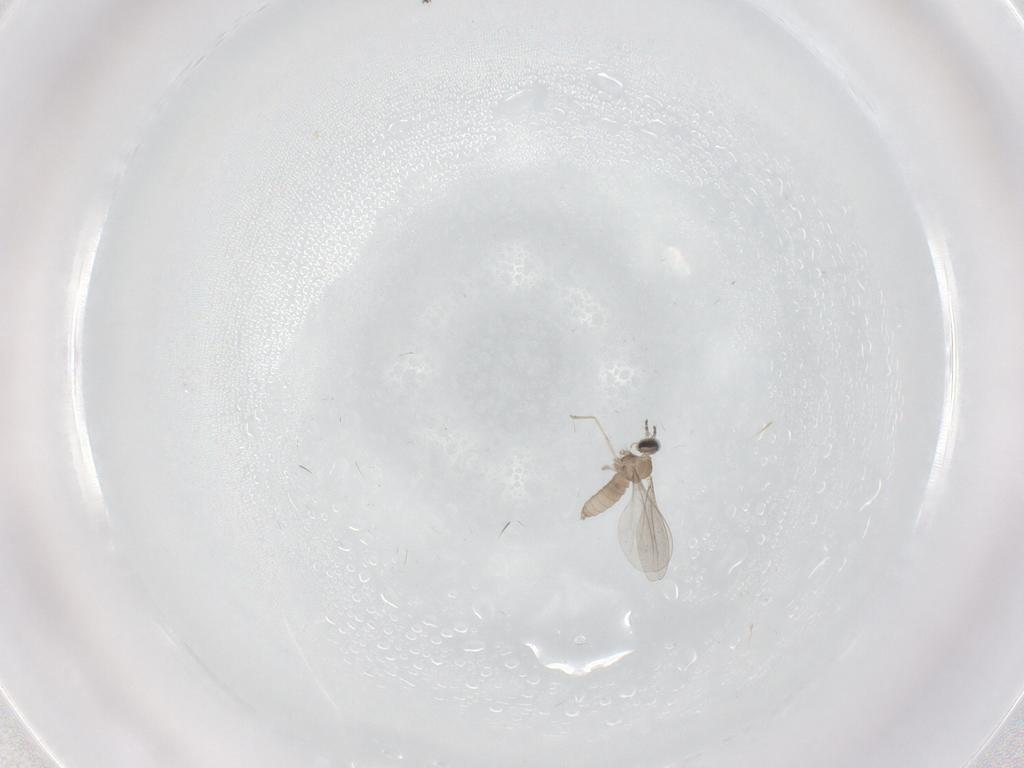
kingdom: Animalia
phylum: Arthropoda
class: Insecta
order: Diptera
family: Cecidomyiidae
